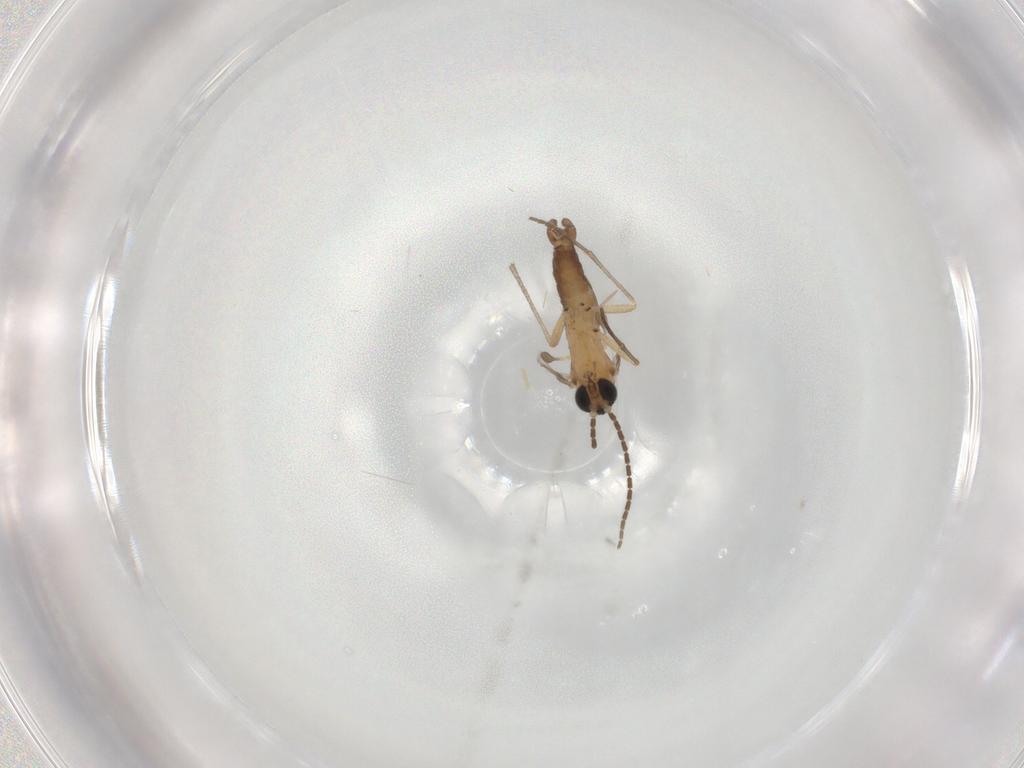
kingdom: Animalia
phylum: Arthropoda
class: Insecta
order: Diptera
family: Sciaridae
